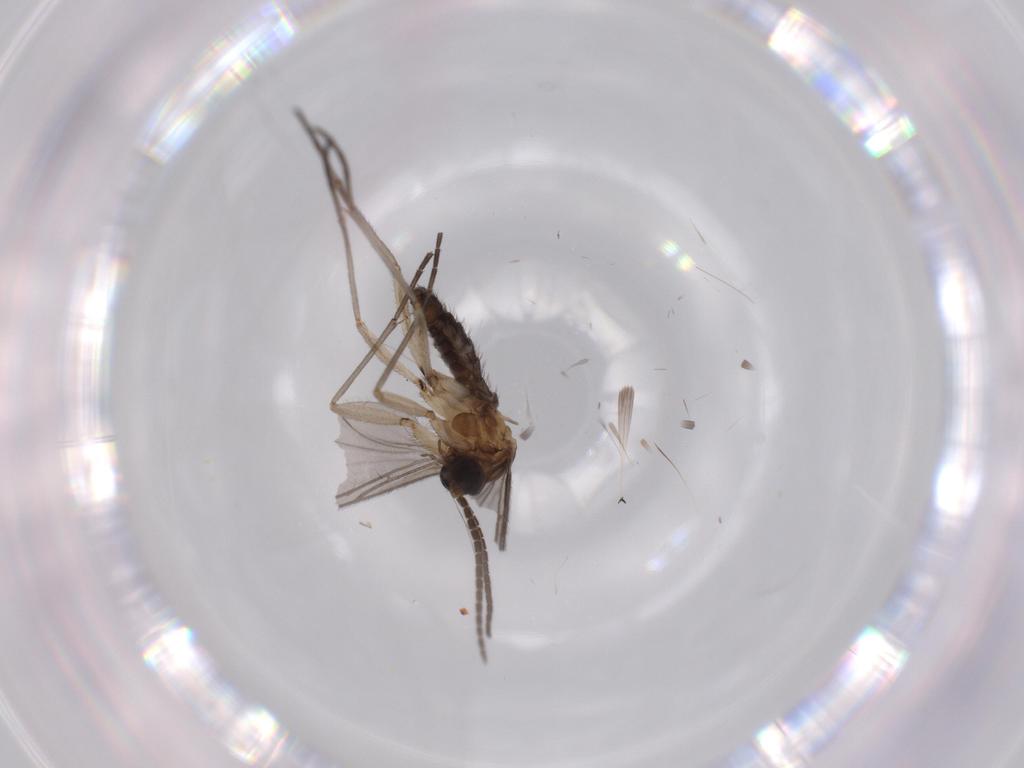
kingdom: Animalia
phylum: Arthropoda
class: Insecta
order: Diptera
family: Sciaridae
